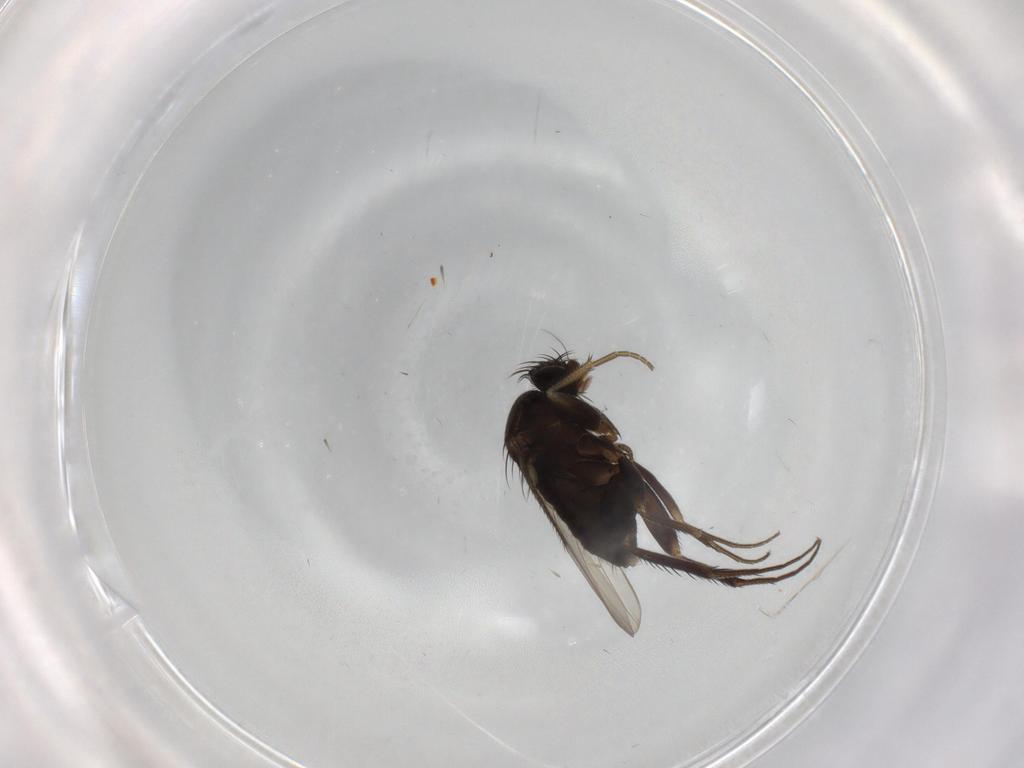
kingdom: Animalia
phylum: Arthropoda
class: Insecta
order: Diptera
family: Phoridae
